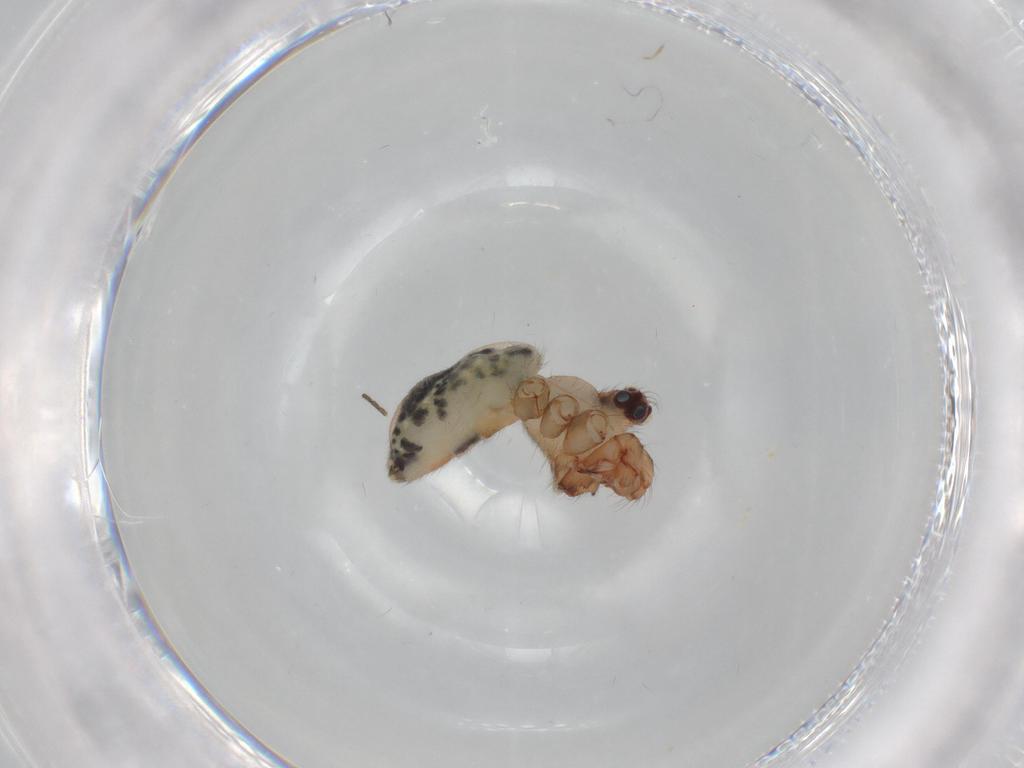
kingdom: Animalia
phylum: Arthropoda
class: Arachnida
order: Araneae
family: Pholcidae
